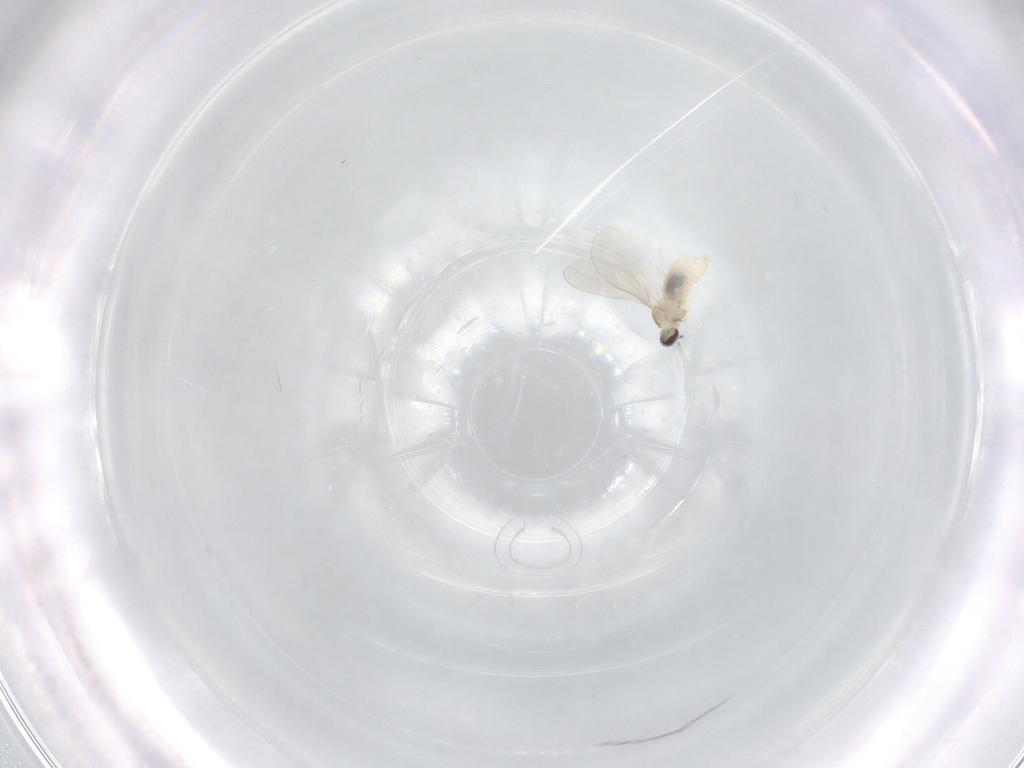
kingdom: Animalia
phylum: Arthropoda
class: Insecta
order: Diptera
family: Cecidomyiidae
